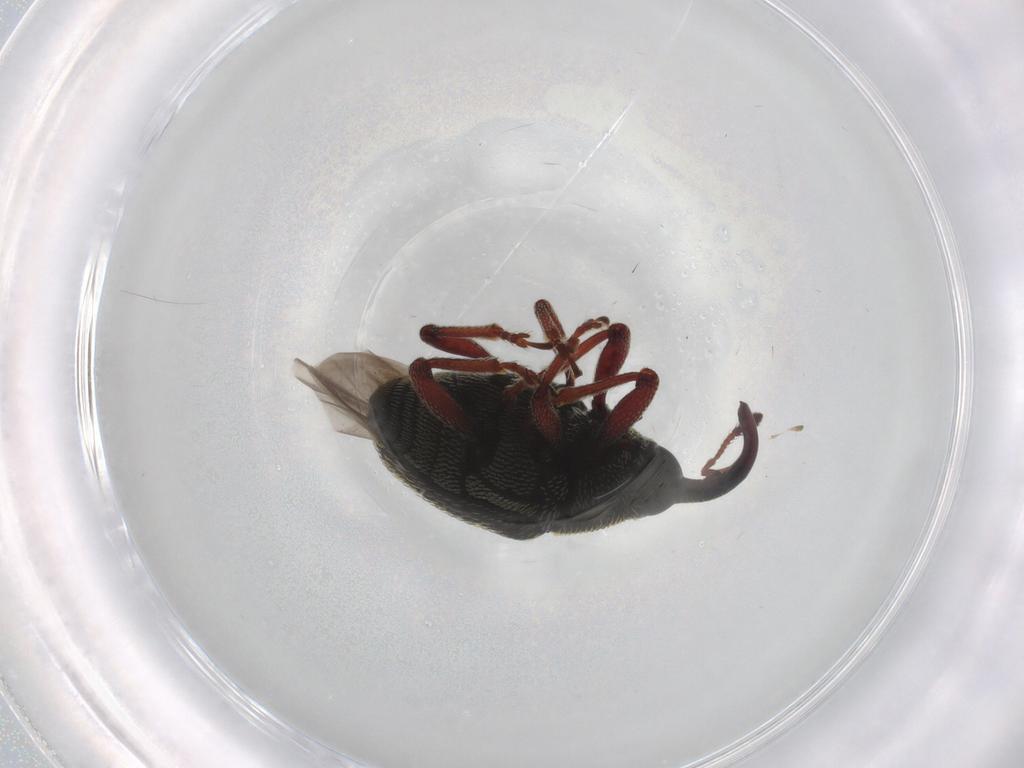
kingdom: Animalia
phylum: Arthropoda
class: Insecta
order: Coleoptera
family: Curculionidae
